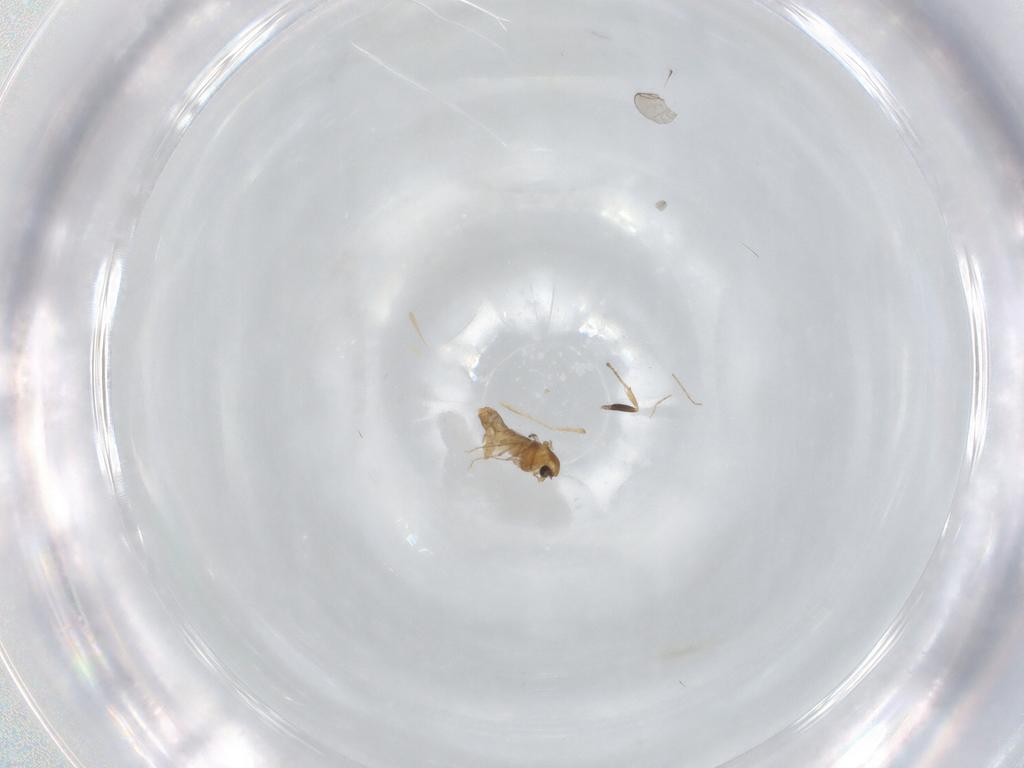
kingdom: Animalia
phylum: Arthropoda
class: Insecta
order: Diptera
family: Chironomidae
